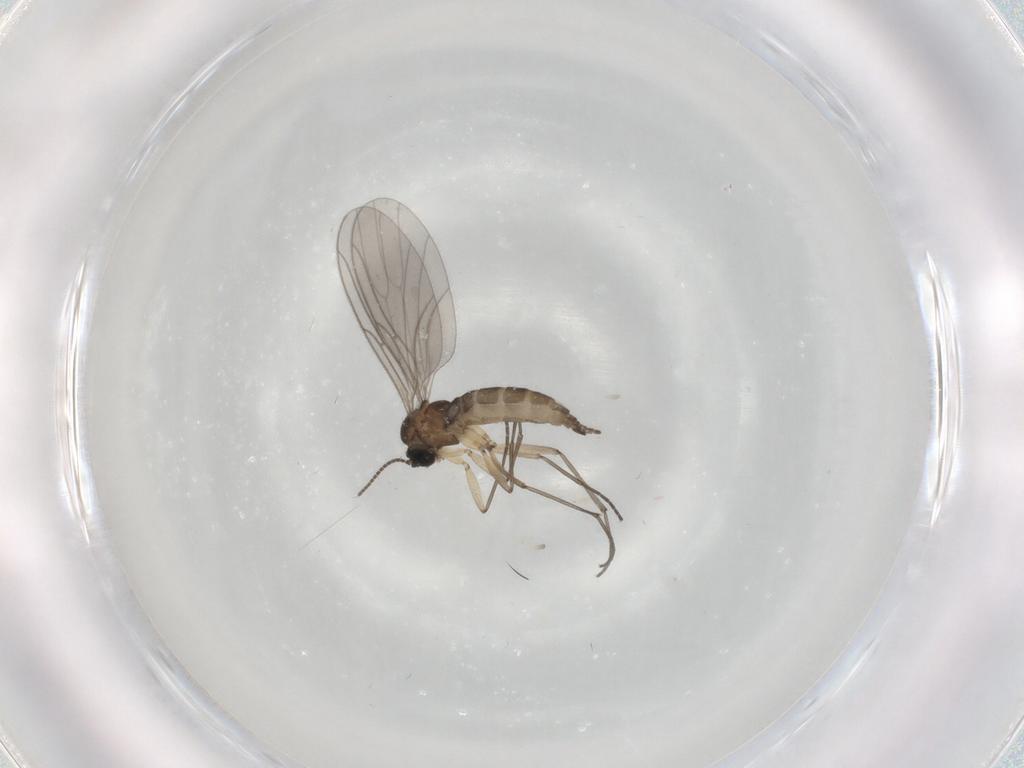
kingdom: Animalia
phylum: Arthropoda
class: Insecta
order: Diptera
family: Sciaridae
